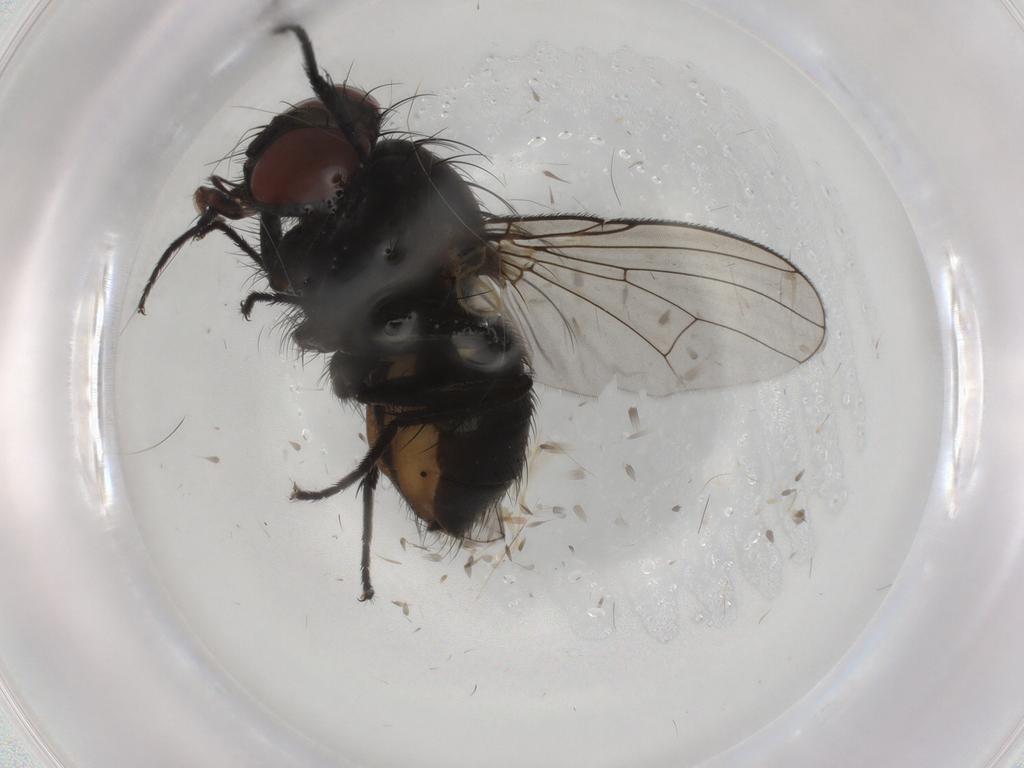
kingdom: Animalia
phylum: Arthropoda
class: Insecta
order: Diptera
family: Muscidae
